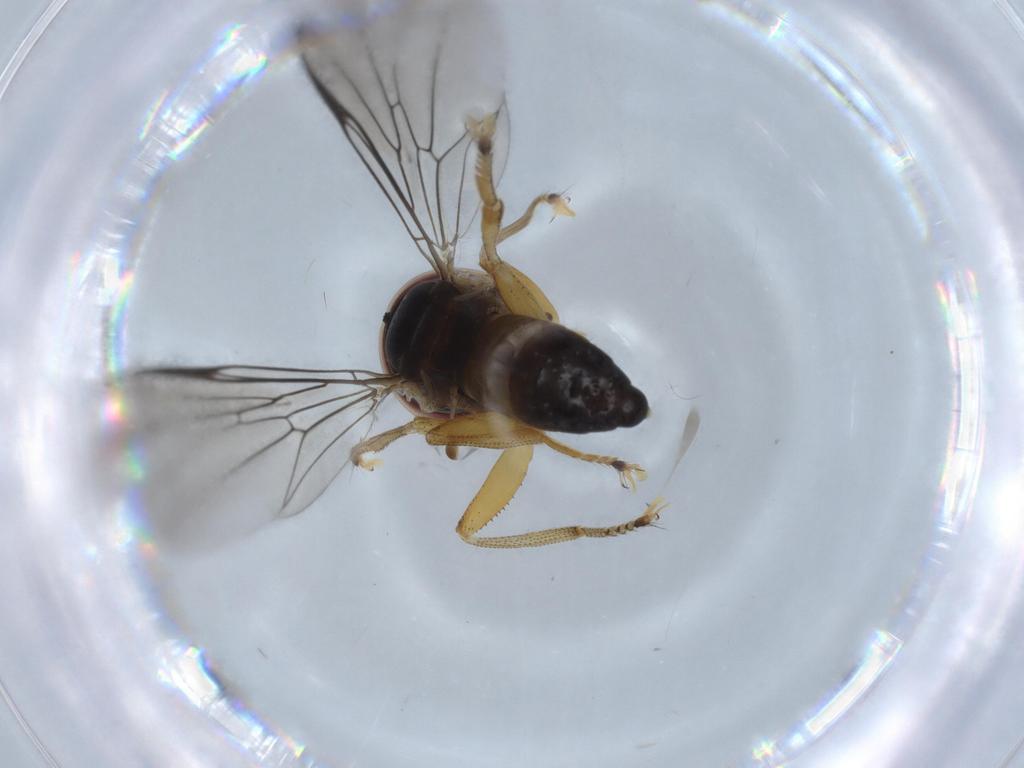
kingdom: Animalia
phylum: Arthropoda
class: Insecta
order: Diptera
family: Pipunculidae
